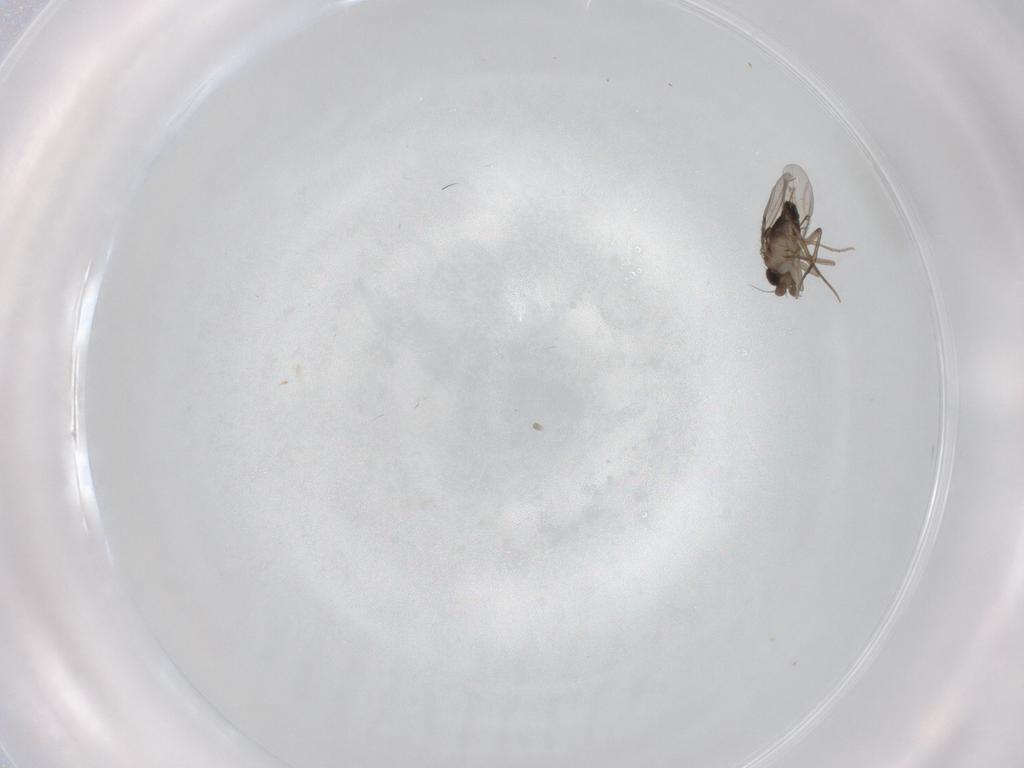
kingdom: Animalia
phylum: Arthropoda
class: Insecta
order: Diptera
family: Phoridae
